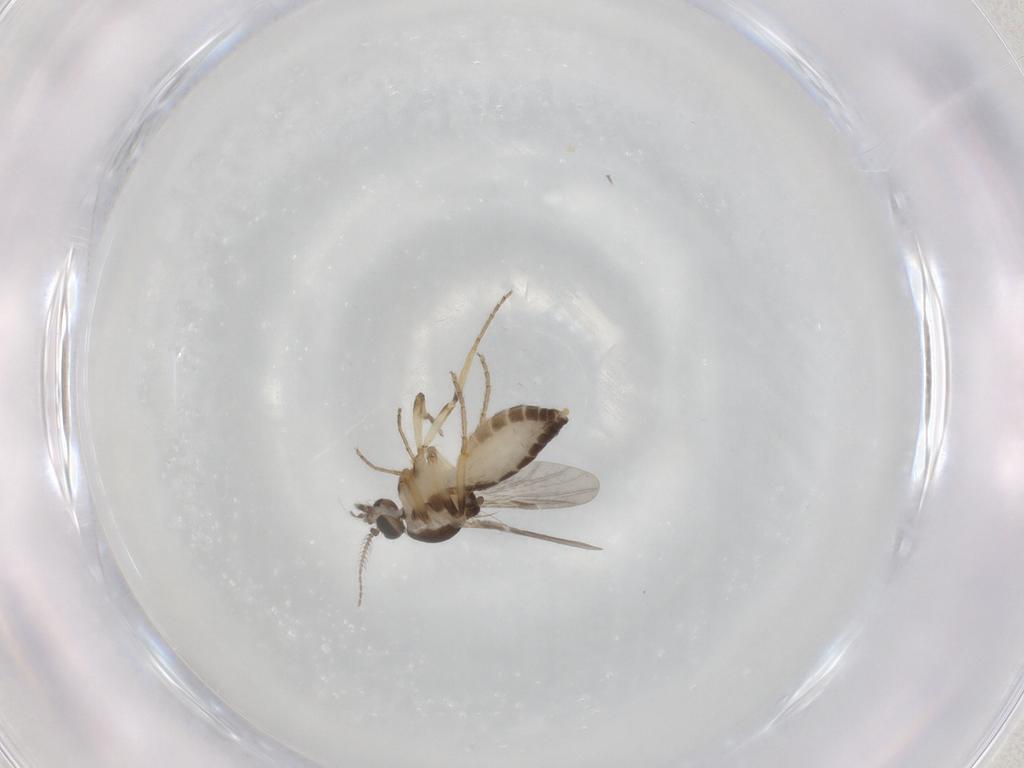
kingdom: Animalia
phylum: Arthropoda
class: Insecta
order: Diptera
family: Ceratopogonidae
